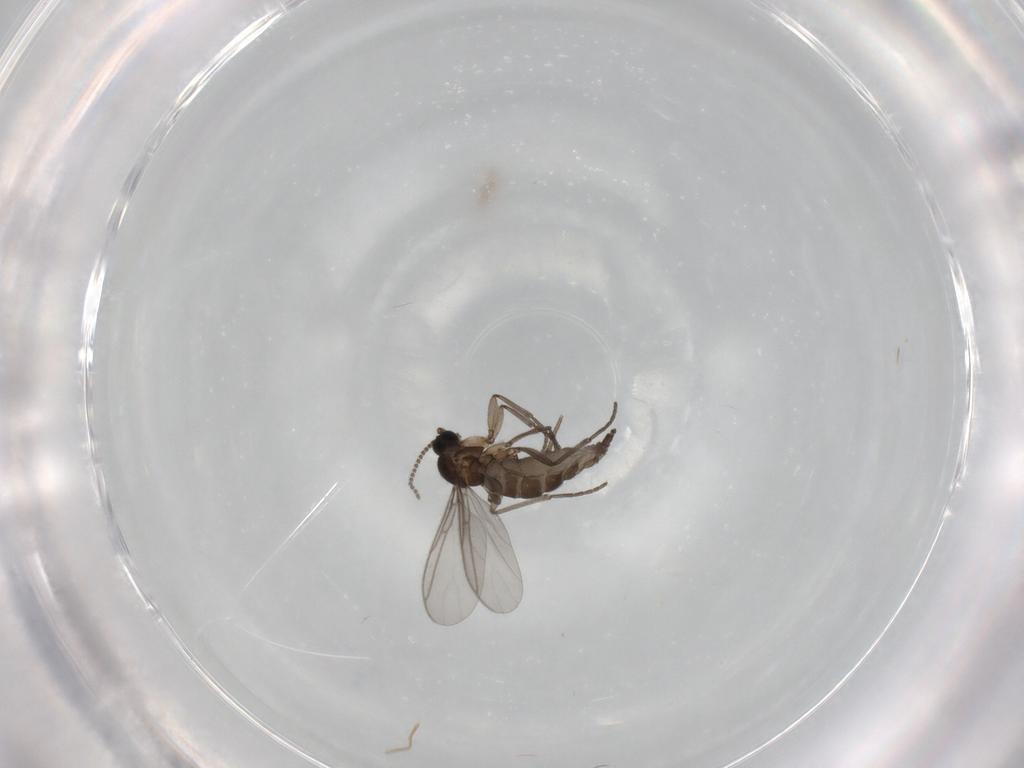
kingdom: Animalia
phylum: Arthropoda
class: Insecta
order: Diptera
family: Chironomidae
